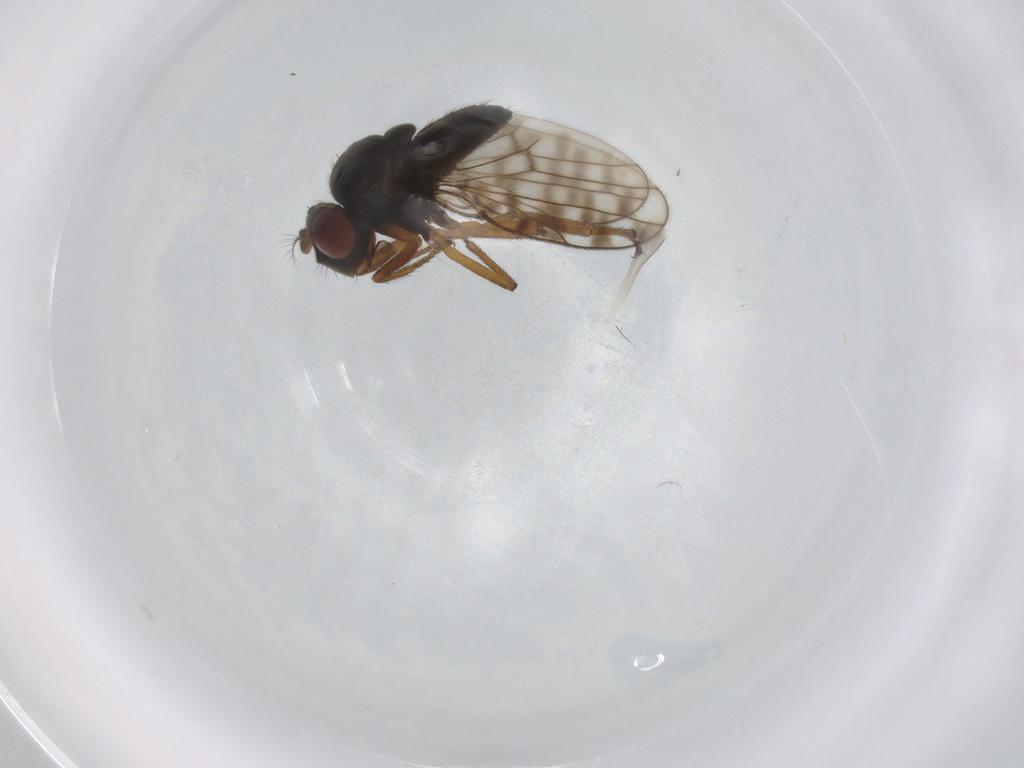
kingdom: Animalia
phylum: Arthropoda
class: Insecta
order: Diptera
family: Ephydridae
